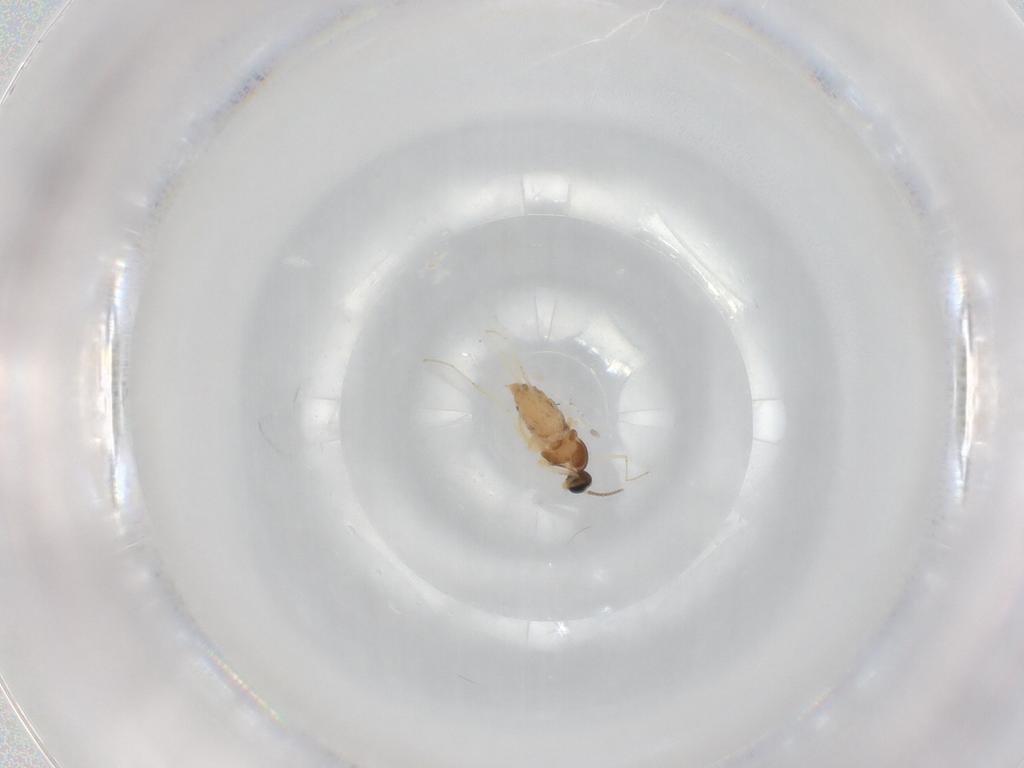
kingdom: Animalia
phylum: Arthropoda
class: Insecta
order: Diptera
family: Cecidomyiidae
